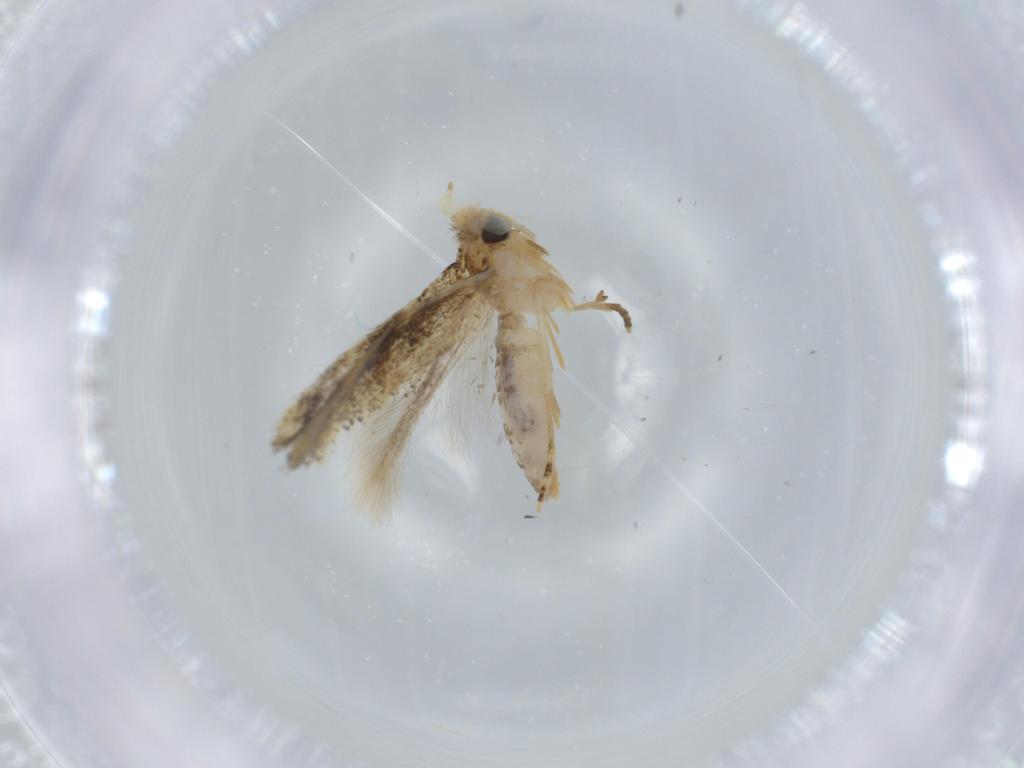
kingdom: Animalia
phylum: Arthropoda
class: Insecta
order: Lepidoptera
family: Bucculatricidae
